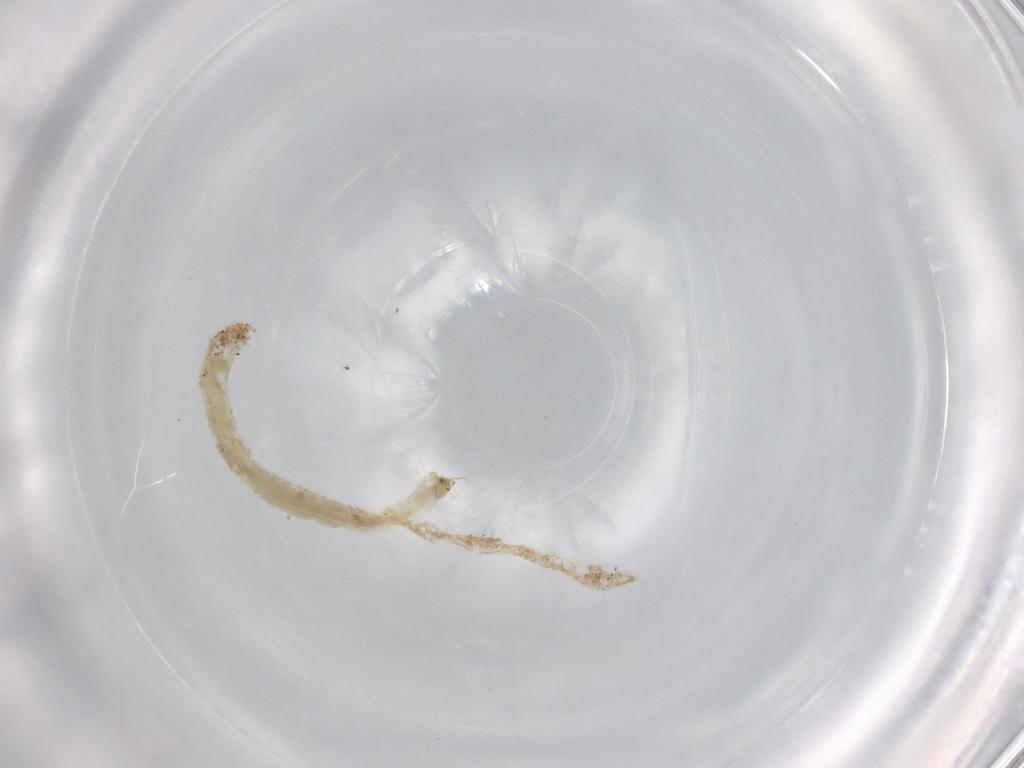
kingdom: Animalia
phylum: Arthropoda
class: Insecta
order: Diptera
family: Chironomidae
